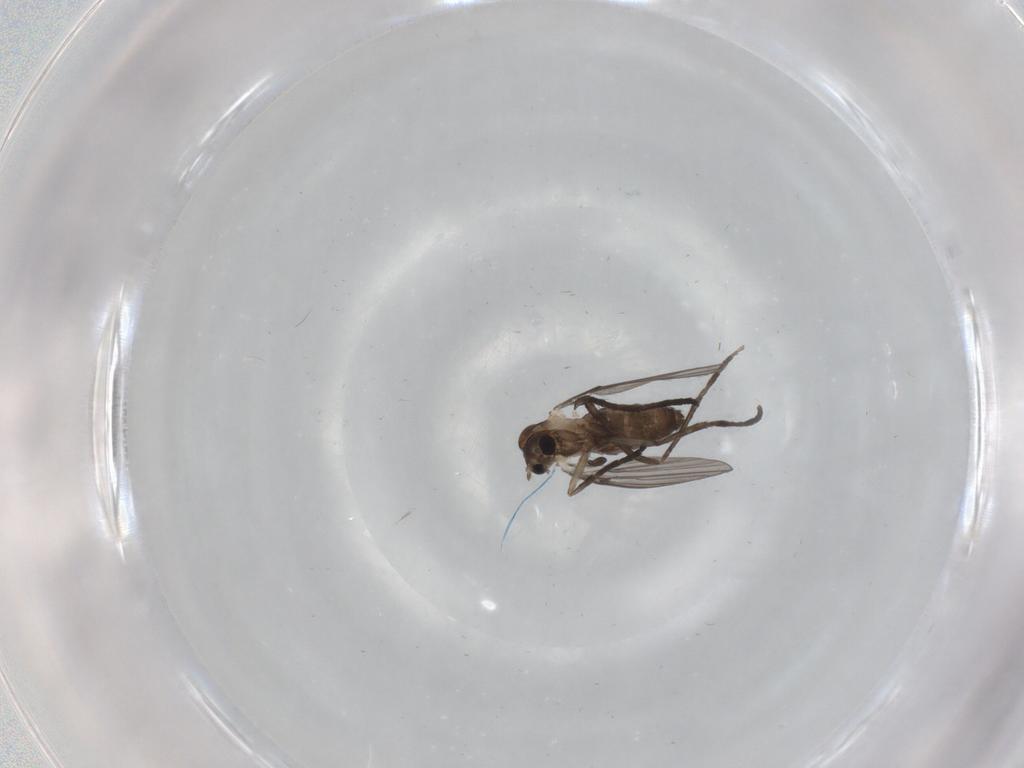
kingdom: Animalia
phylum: Arthropoda
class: Insecta
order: Diptera
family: Psychodidae
